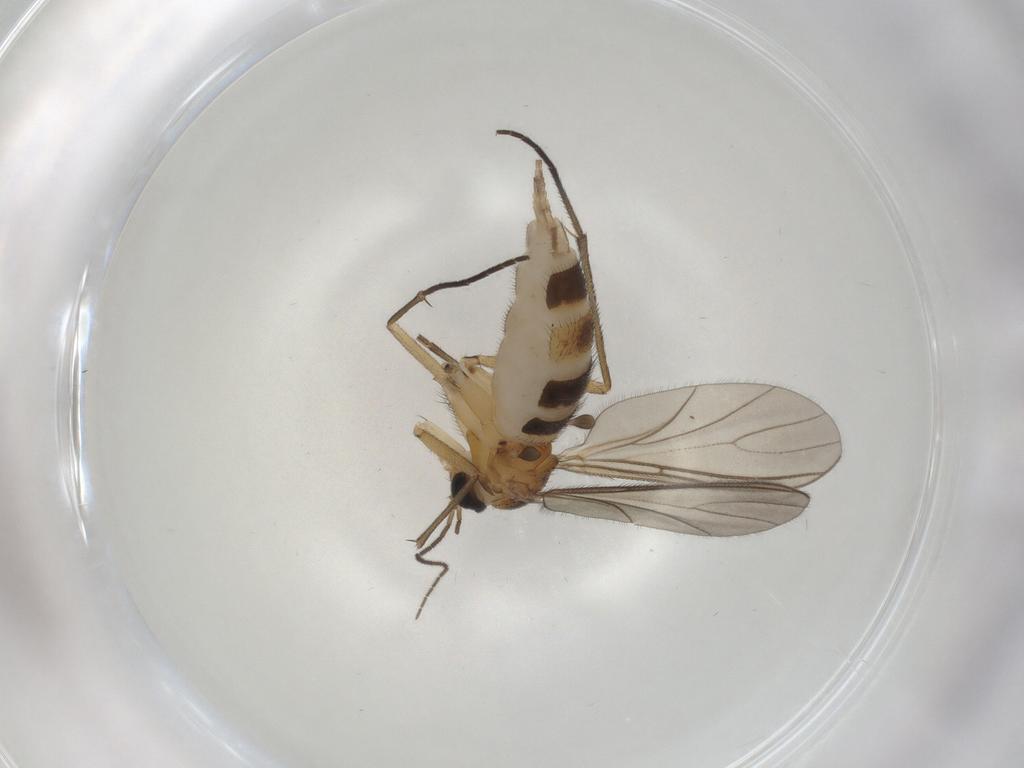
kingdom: Animalia
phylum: Arthropoda
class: Insecta
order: Diptera
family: Sciaridae
